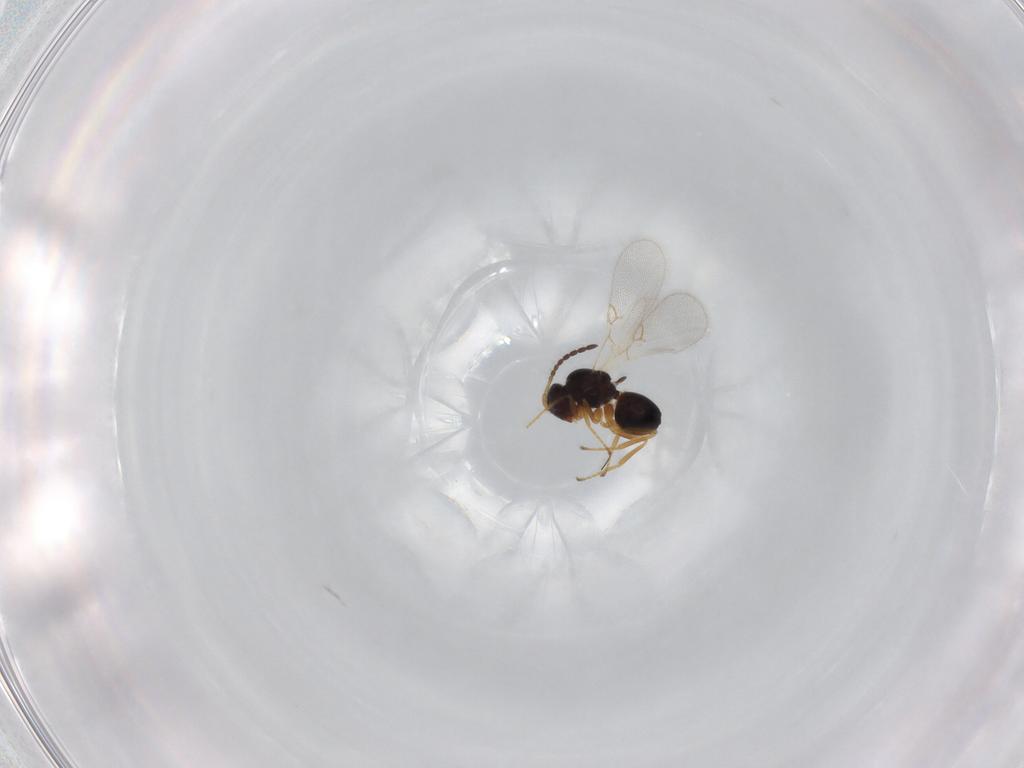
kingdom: Animalia
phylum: Arthropoda
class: Insecta
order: Hymenoptera
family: Figitidae
